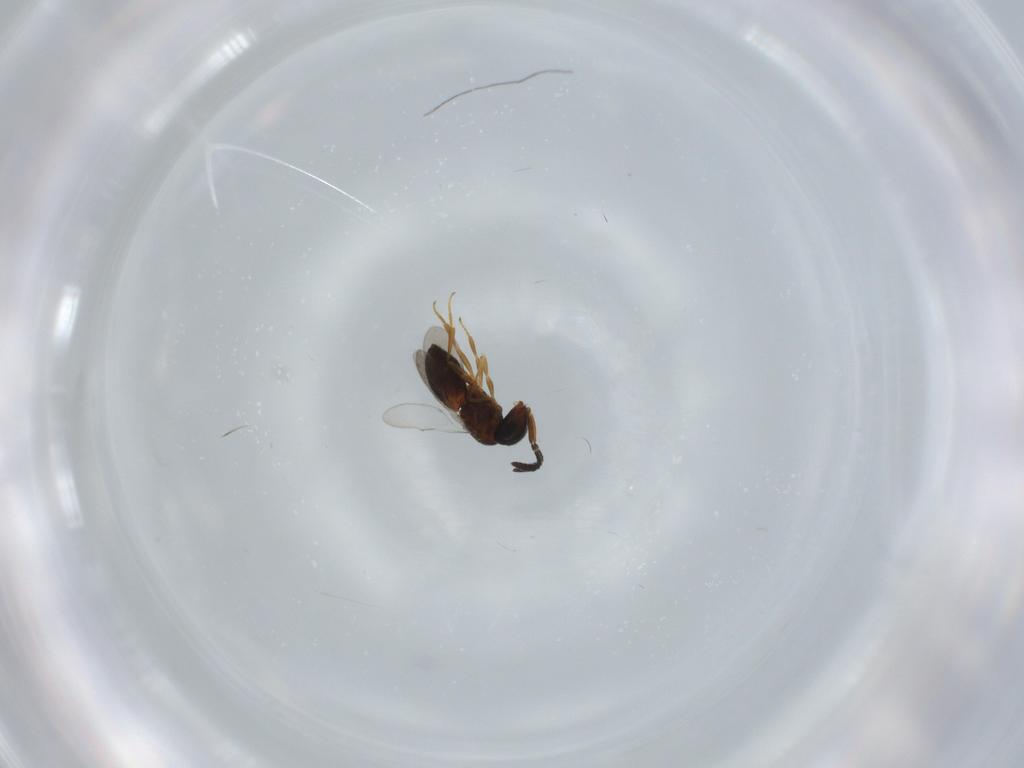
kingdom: Animalia
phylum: Arthropoda
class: Insecta
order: Hymenoptera
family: Scelionidae
